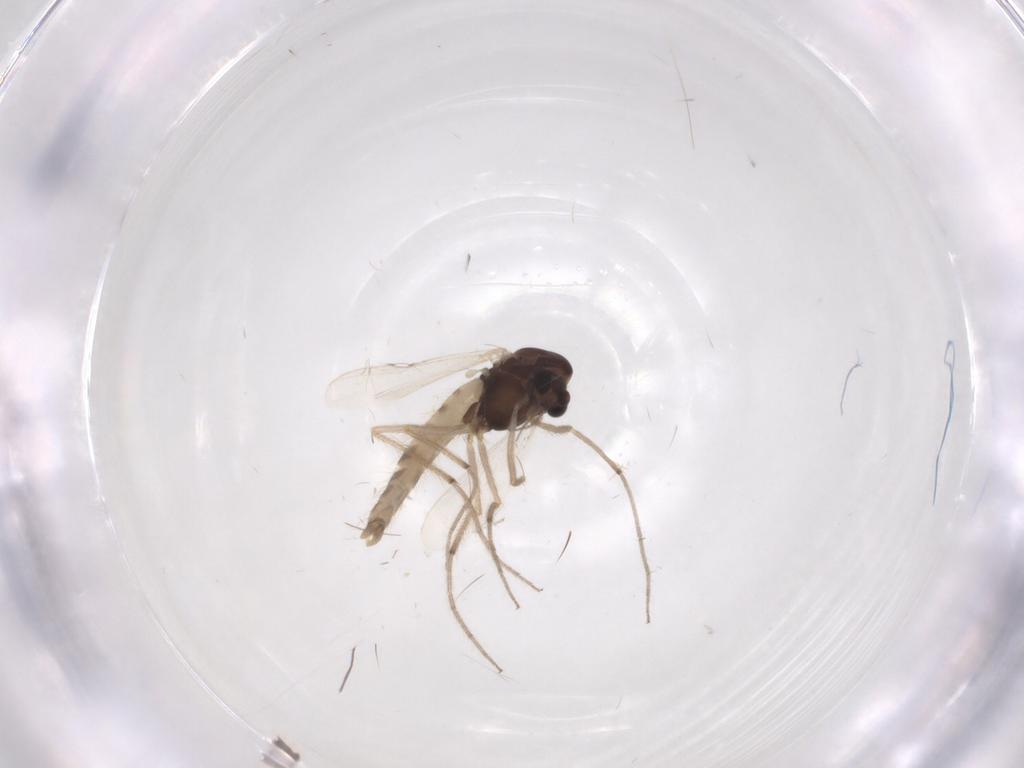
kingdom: Animalia
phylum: Arthropoda
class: Insecta
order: Diptera
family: Chironomidae
